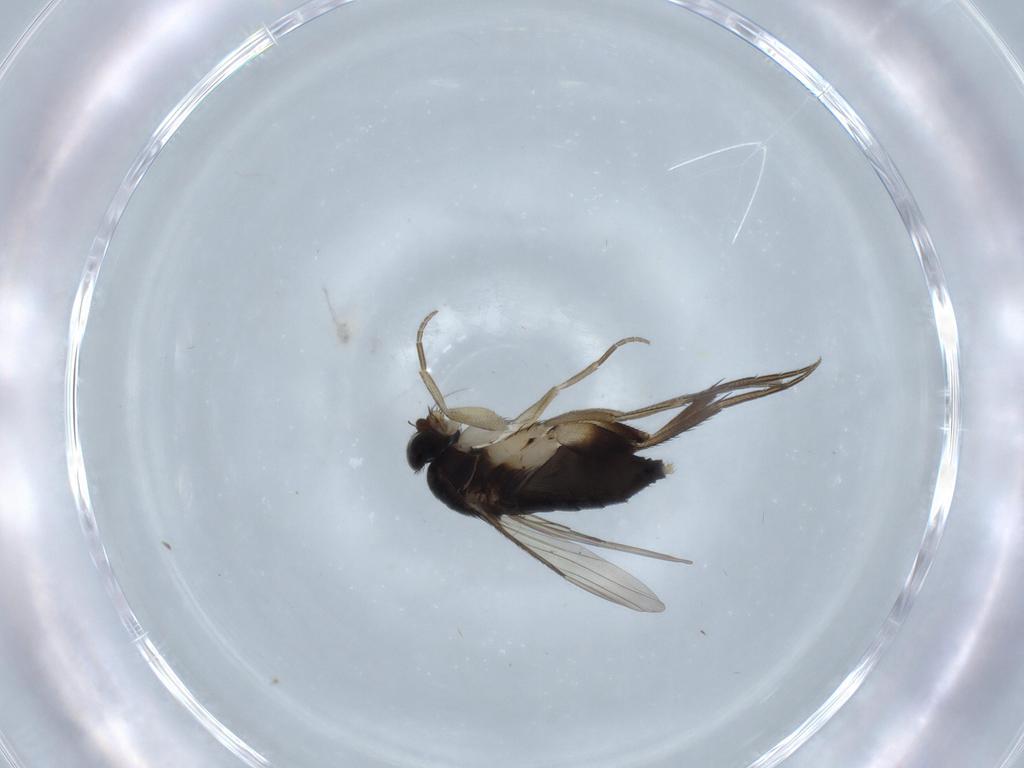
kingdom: Animalia
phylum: Arthropoda
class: Insecta
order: Diptera
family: Phoridae
